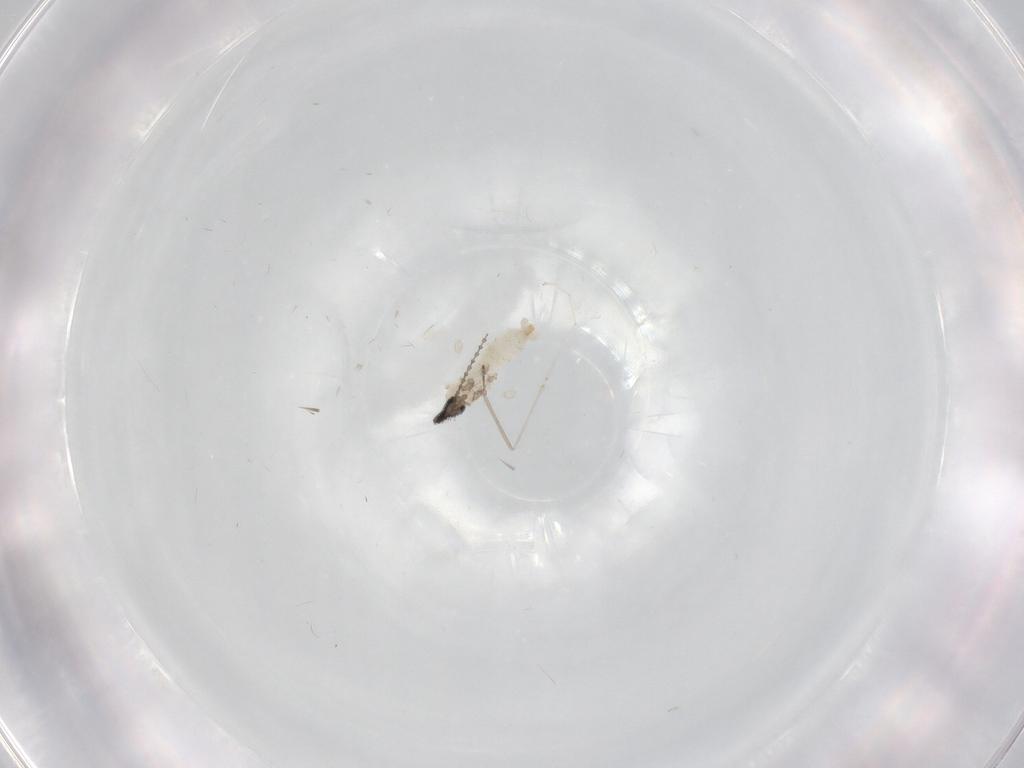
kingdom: Animalia
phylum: Arthropoda
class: Insecta
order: Diptera
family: Cecidomyiidae
